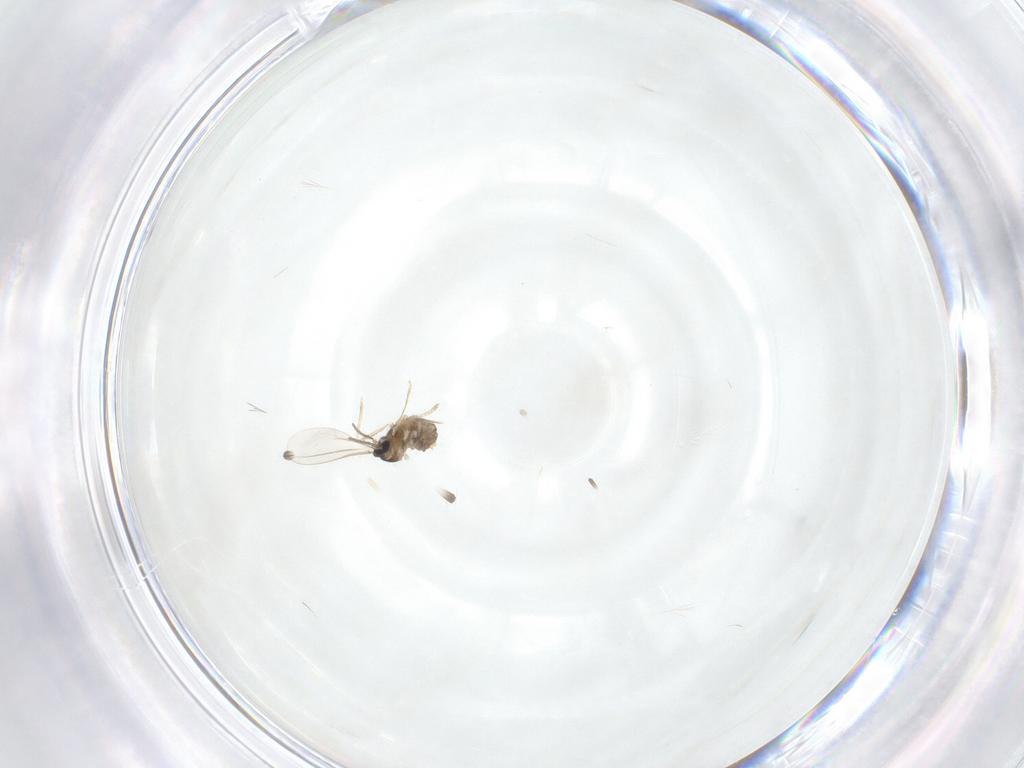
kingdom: Animalia
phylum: Arthropoda
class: Insecta
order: Diptera
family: Cecidomyiidae
